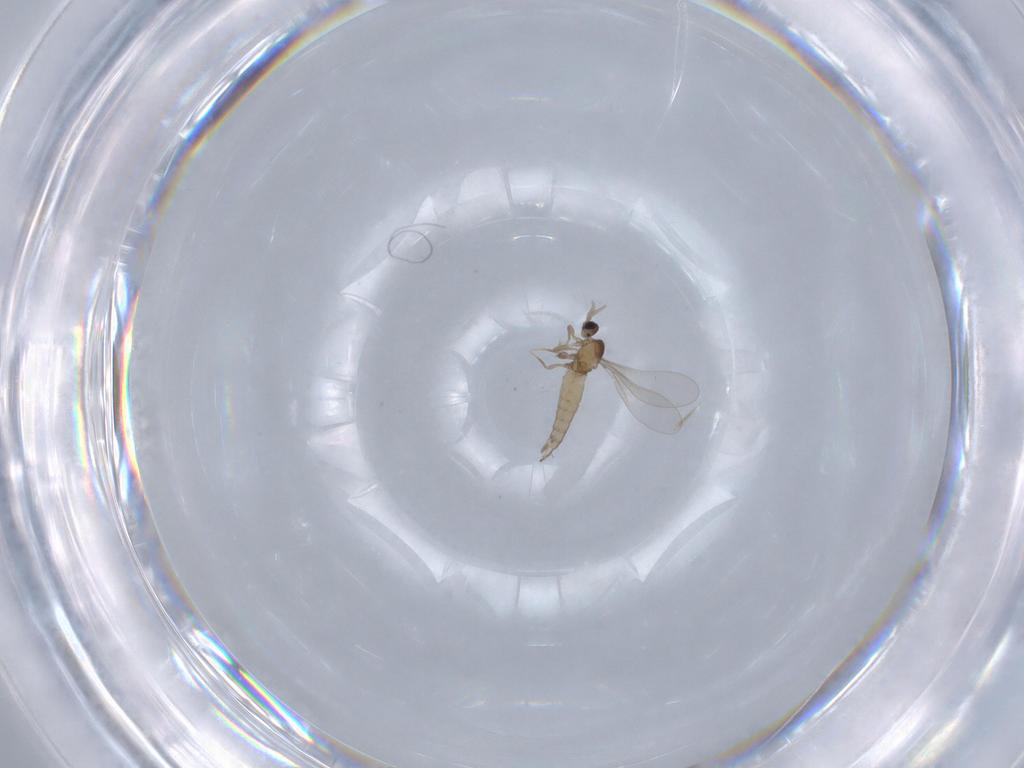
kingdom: Animalia
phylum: Arthropoda
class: Insecta
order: Diptera
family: Cecidomyiidae
